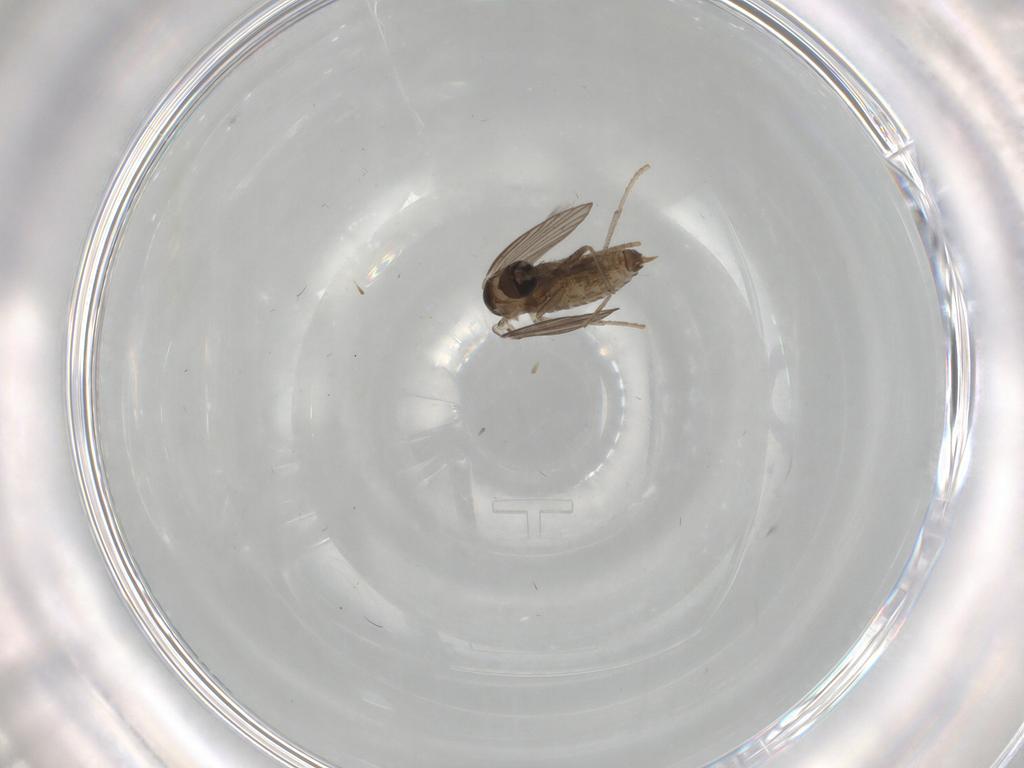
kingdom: Animalia
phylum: Arthropoda
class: Insecta
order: Diptera
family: Psychodidae
